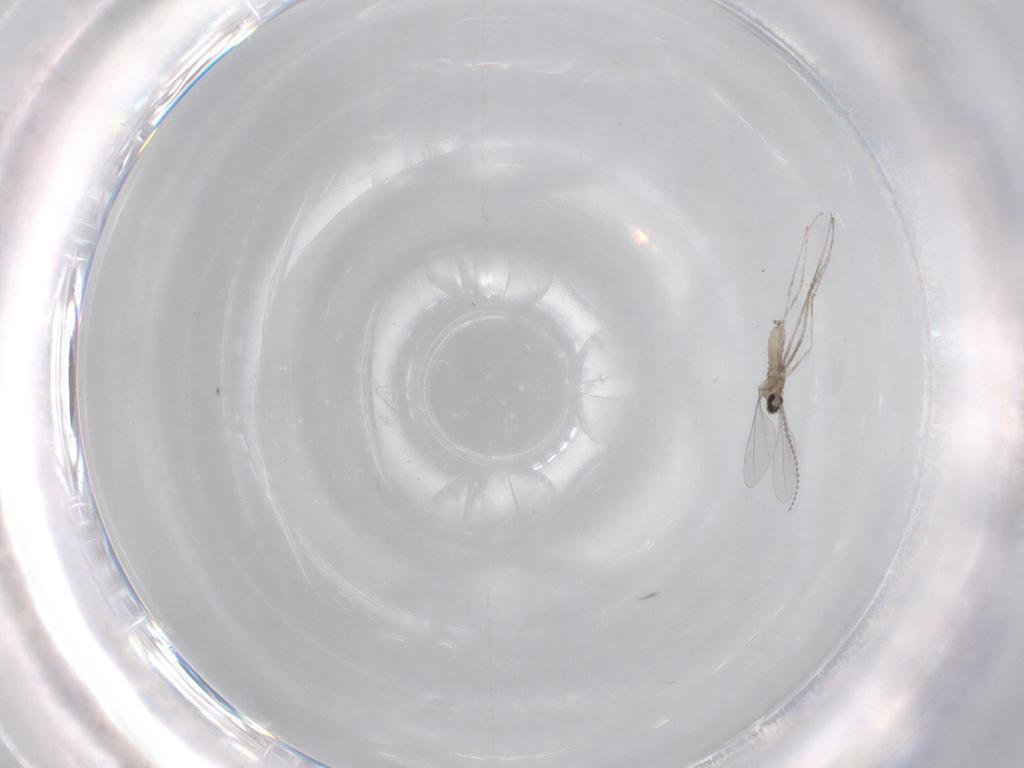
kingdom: Animalia
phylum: Arthropoda
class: Insecta
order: Diptera
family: Cecidomyiidae
